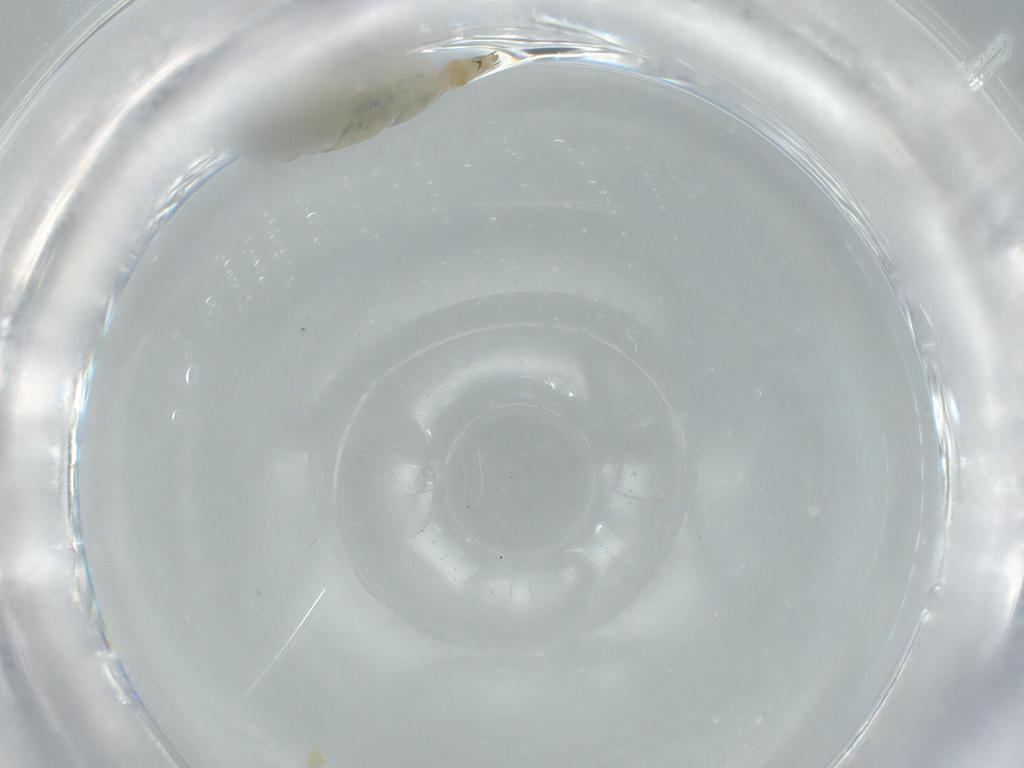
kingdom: Animalia
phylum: Arthropoda
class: Insecta
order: Diptera
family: Chironomidae
